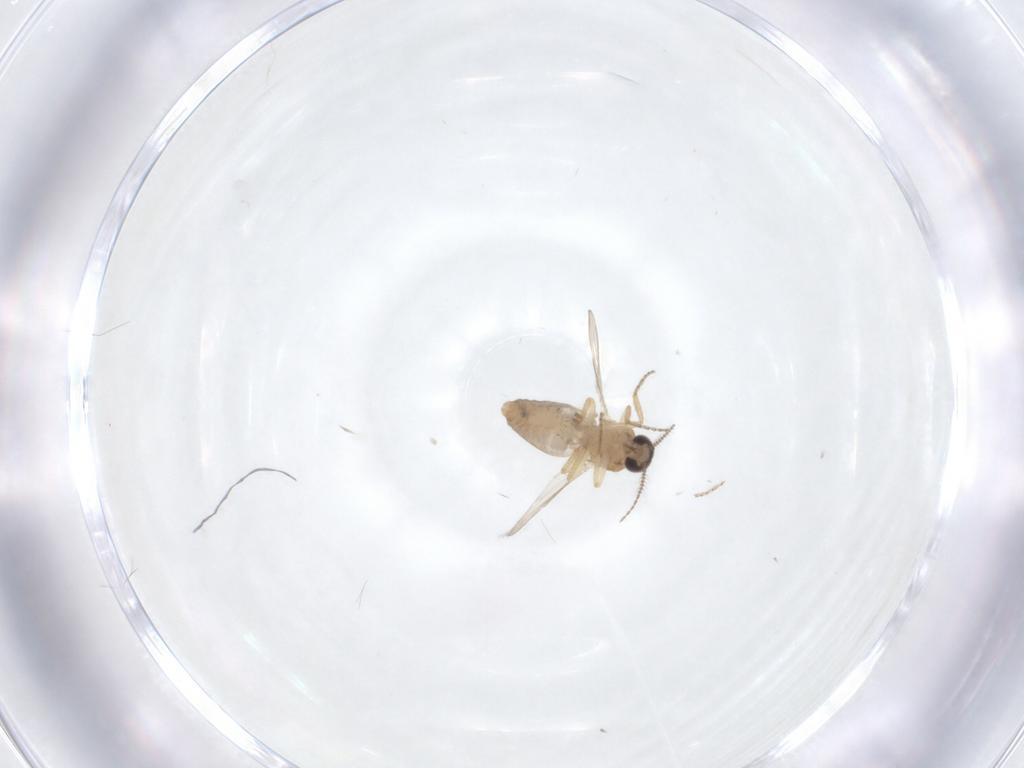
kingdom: Animalia
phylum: Arthropoda
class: Insecta
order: Diptera
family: Ceratopogonidae
